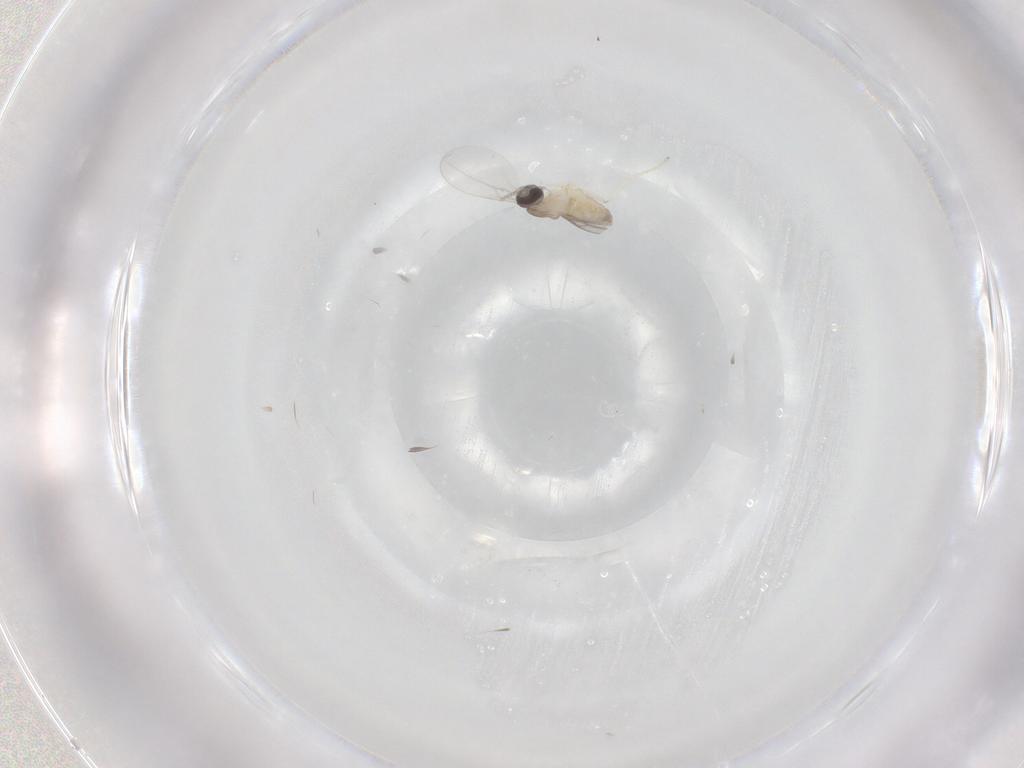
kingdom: Animalia
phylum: Arthropoda
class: Insecta
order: Diptera
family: Cecidomyiidae
